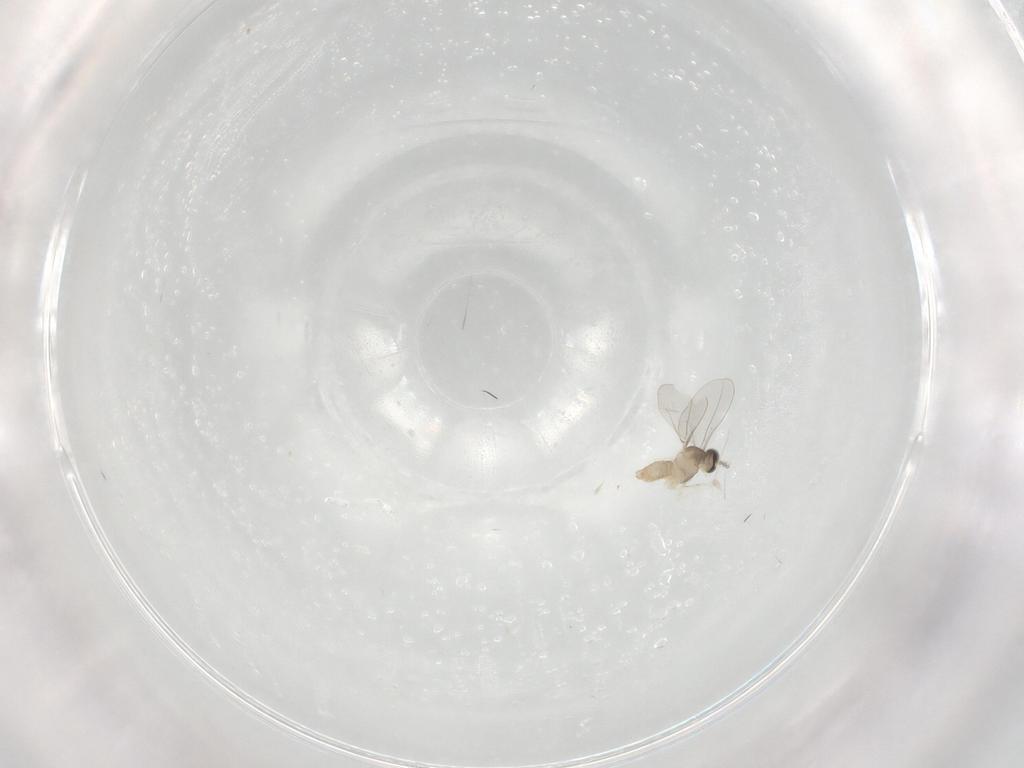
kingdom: Animalia
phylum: Arthropoda
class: Insecta
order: Diptera
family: Cecidomyiidae
